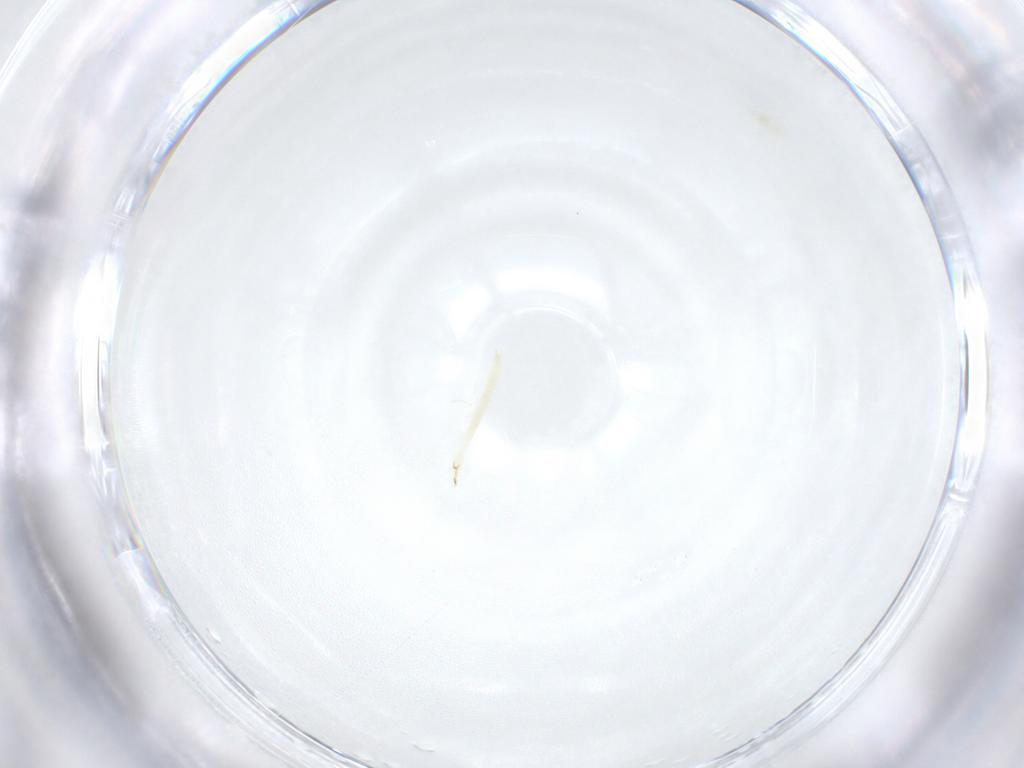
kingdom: Animalia
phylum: Arthropoda
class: Insecta
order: Diptera
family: Sarcophagidae
